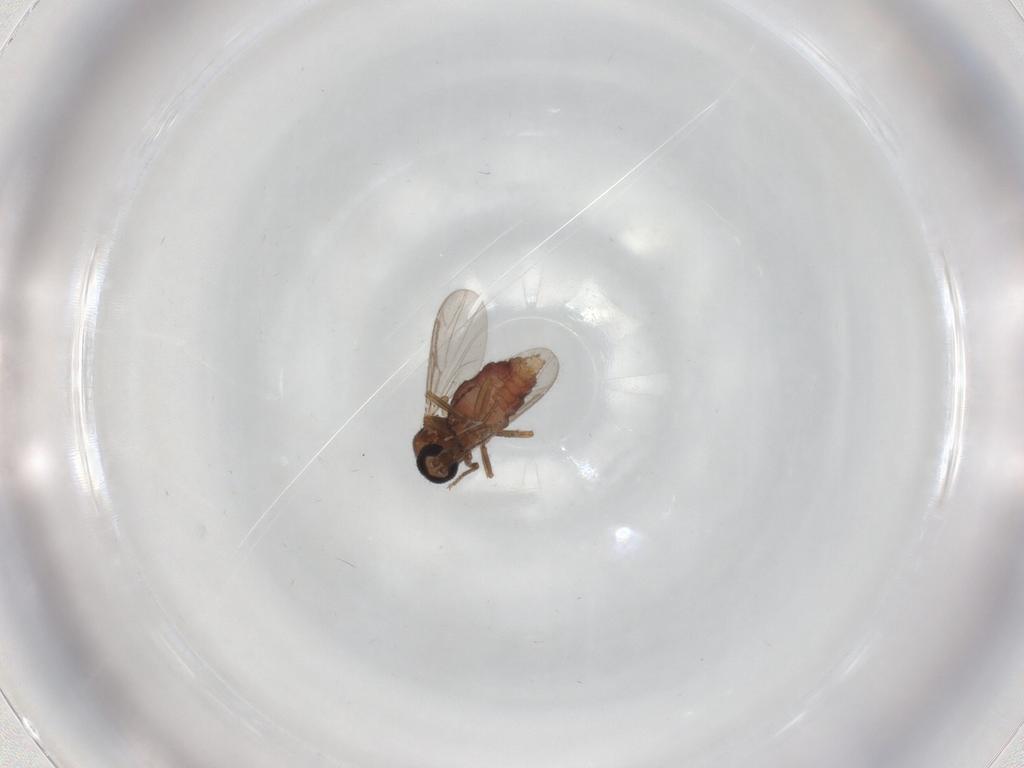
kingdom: Animalia
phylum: Arthropoda
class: Insecta
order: Diptera
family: Ceratopogonidae
